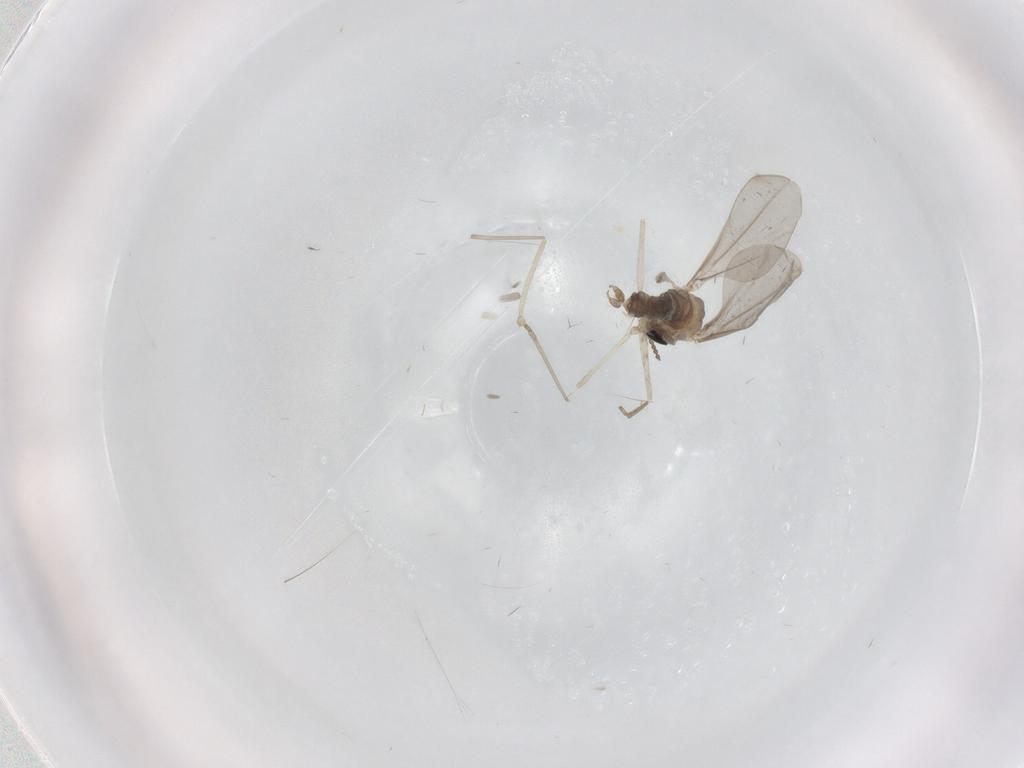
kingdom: Animalia
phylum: Arthropoda
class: Insecta
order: Diptera
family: Cecidomyiidae
